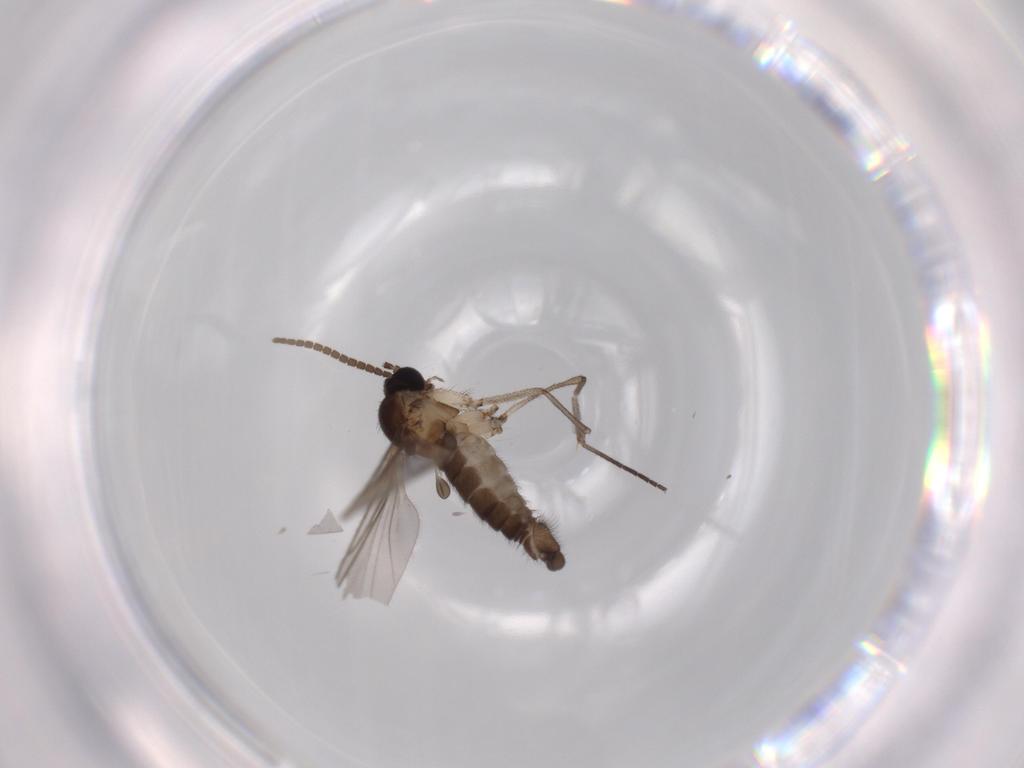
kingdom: Animalia
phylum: Arthropoda
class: Insecta
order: Diptera
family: Sciaridae
